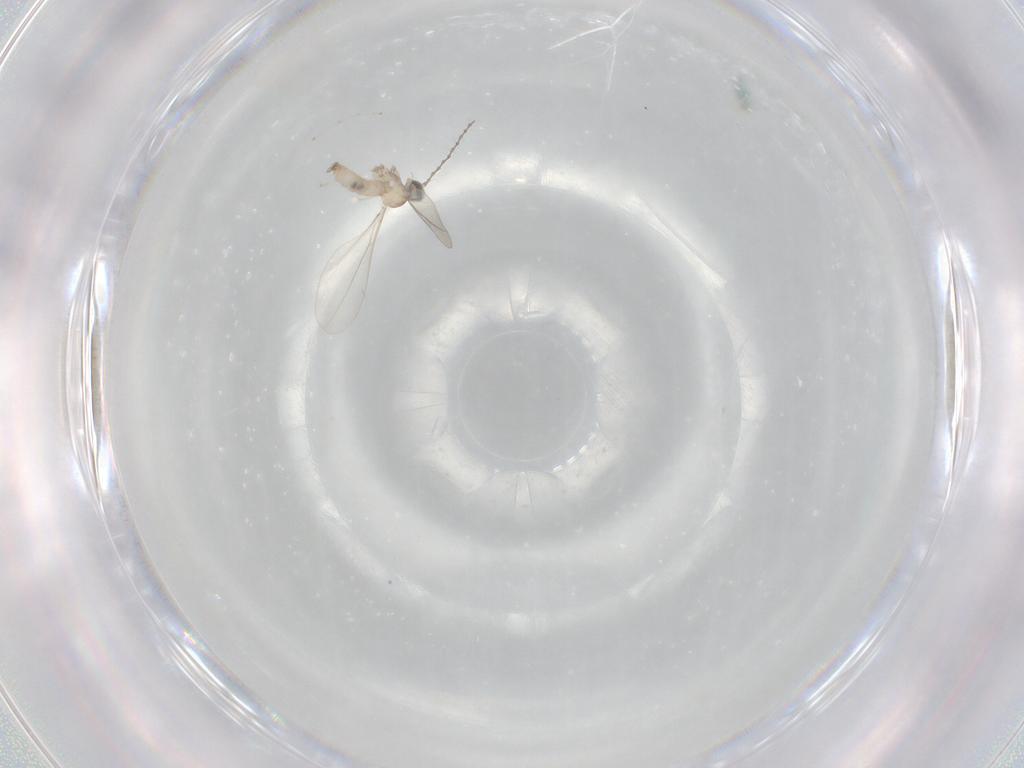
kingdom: Animalia
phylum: Arthropoda
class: Insecta
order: Diptera
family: Cecidomyiidae
